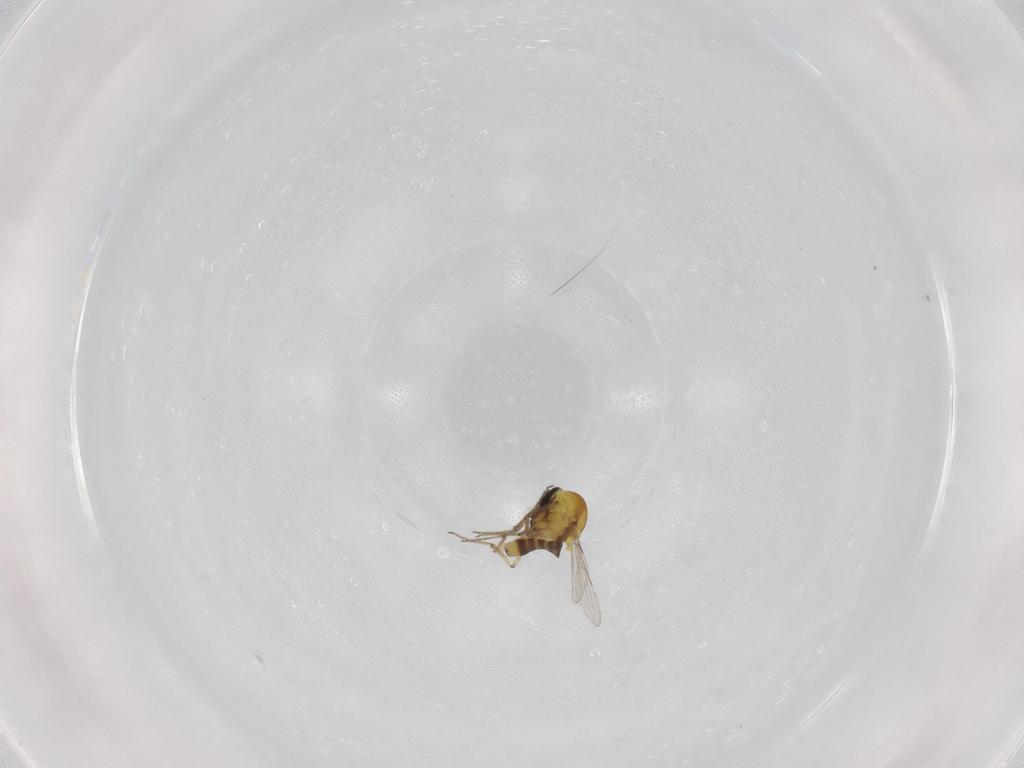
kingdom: Animalia
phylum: Arthropoda
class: Insecta
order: Diptera
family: Ceratopogonidae
